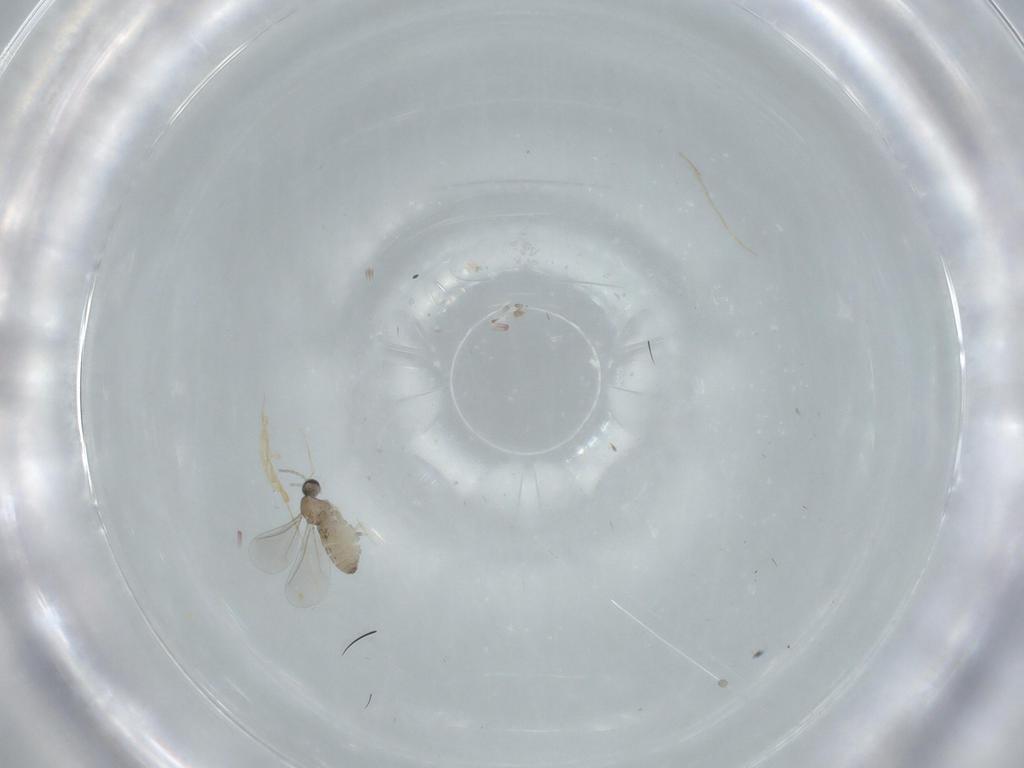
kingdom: Animalia
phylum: Arthropoda
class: Insecta
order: Diptera
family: Cecidomyiidae
